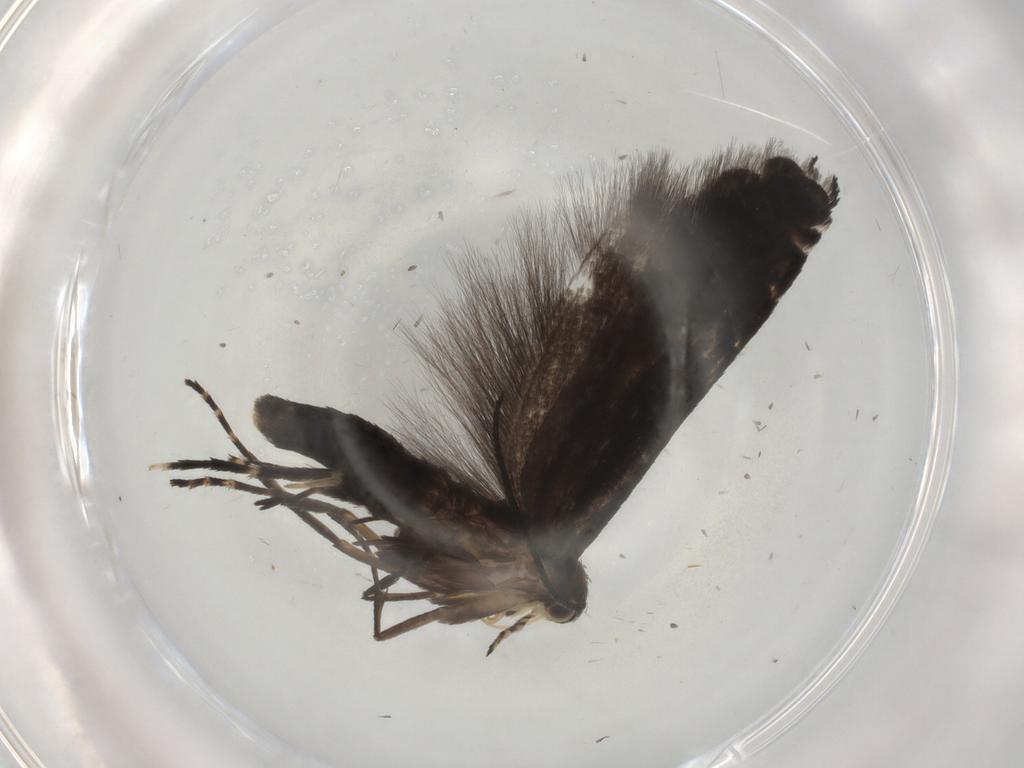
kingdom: Animalia
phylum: Arthropoda
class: Insecta
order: Lepidoptera
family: Glyphipterigidae
